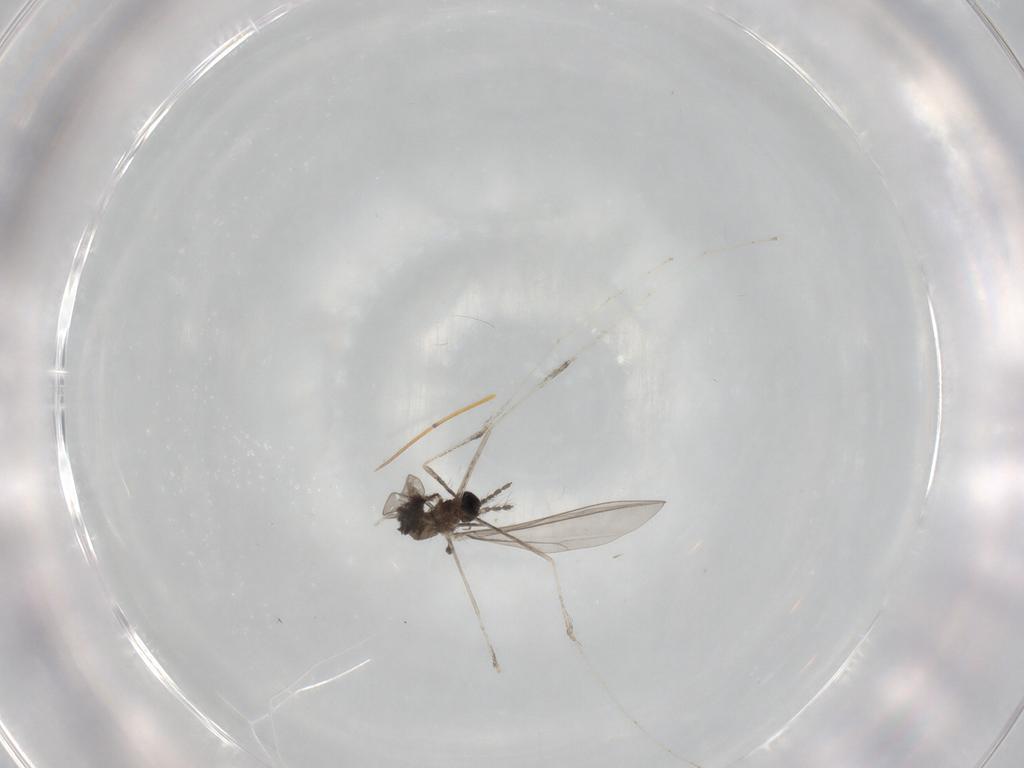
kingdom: Animalia
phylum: Arthropoda
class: Insecta
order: Diptera
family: Cecidomyiidae
